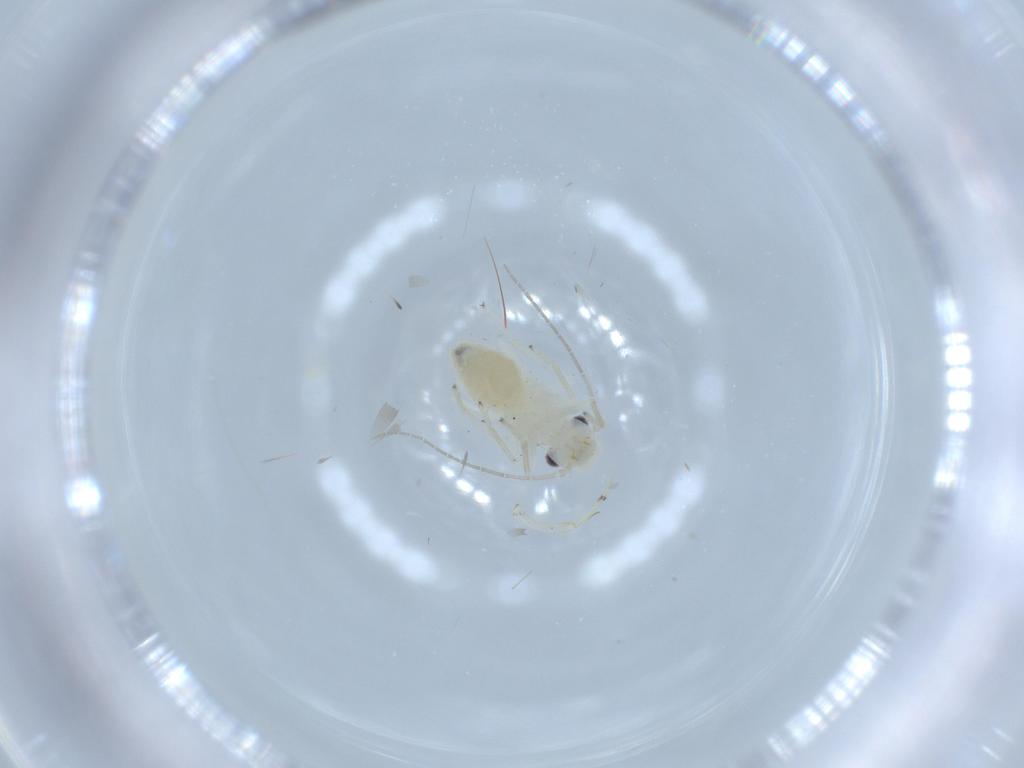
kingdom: Animalia
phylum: Arthropoda
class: Insecta
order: Psocodea
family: Caeciliusidae
